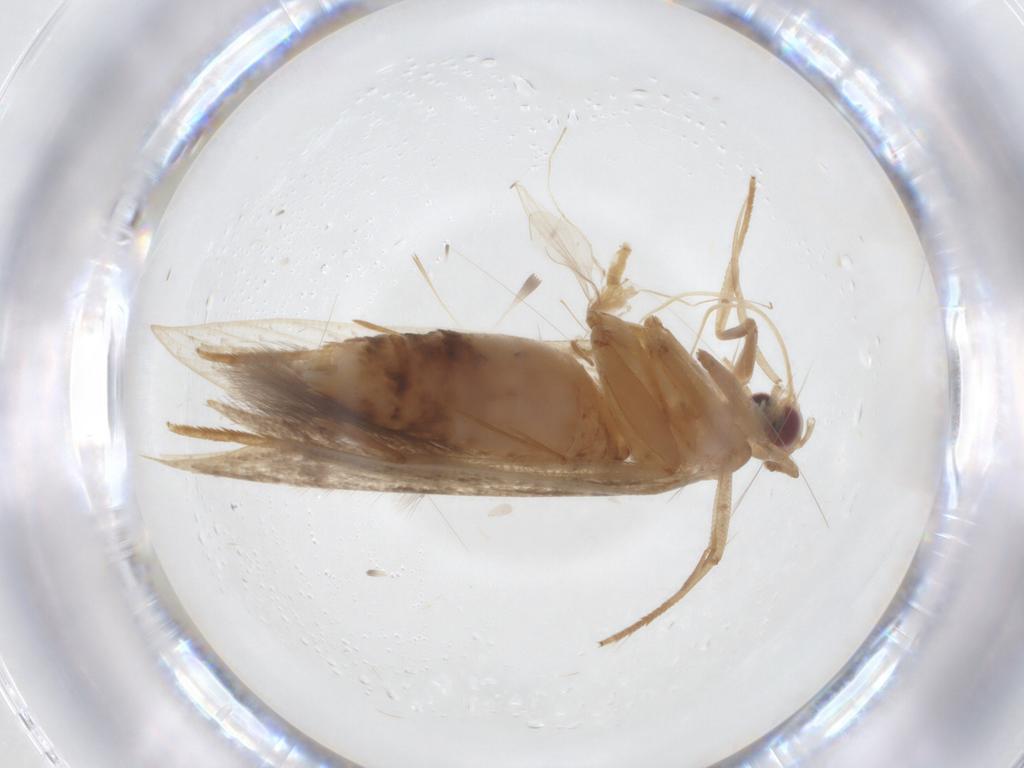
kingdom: Animalia
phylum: Arthropoda
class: Insecta
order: Lepidoptera
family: Cosmopterigidae
